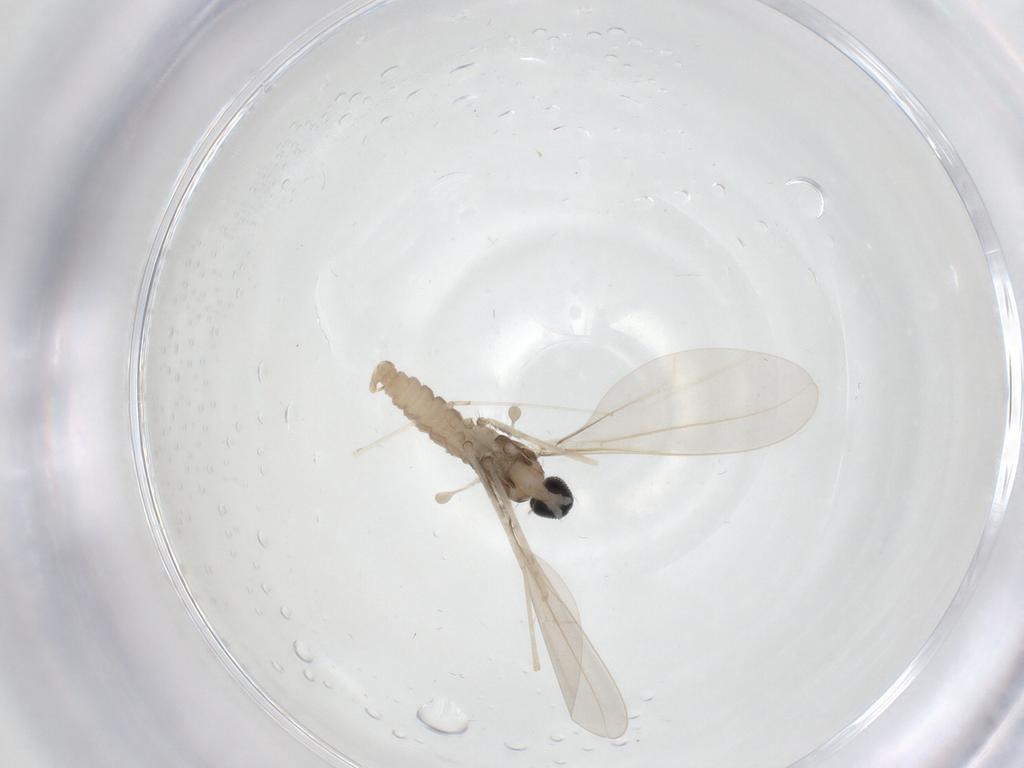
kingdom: Animalia
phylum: Arthropoda
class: Insecta
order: Diptera
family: Cecidomyiidae
